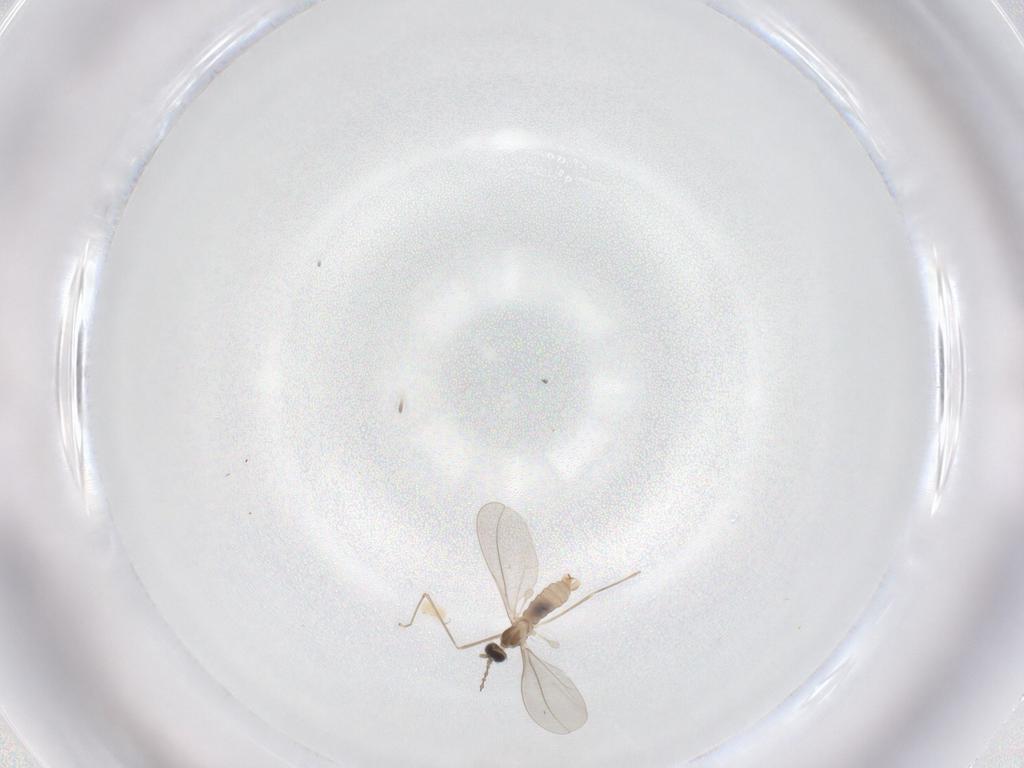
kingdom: Animalia
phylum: Arthropoda
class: Insecta
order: Diptera
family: Cecidomyiidae
